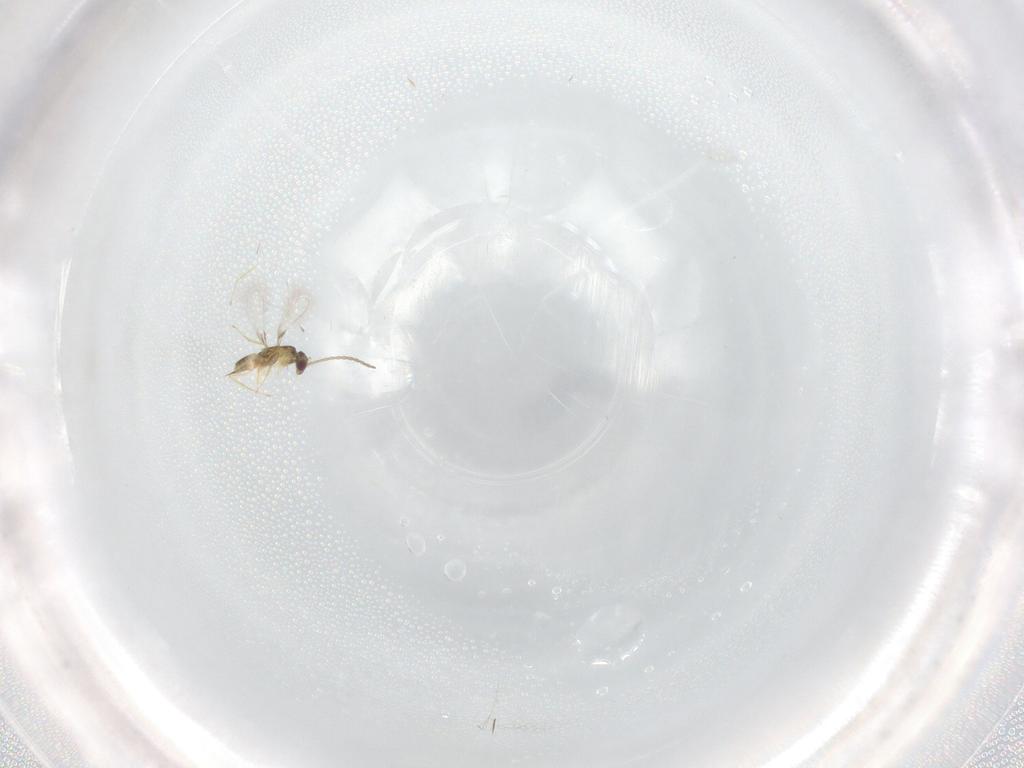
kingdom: Animalia
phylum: Arthropoda
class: Insecta
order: Hymenoptera
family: Mymaridae
